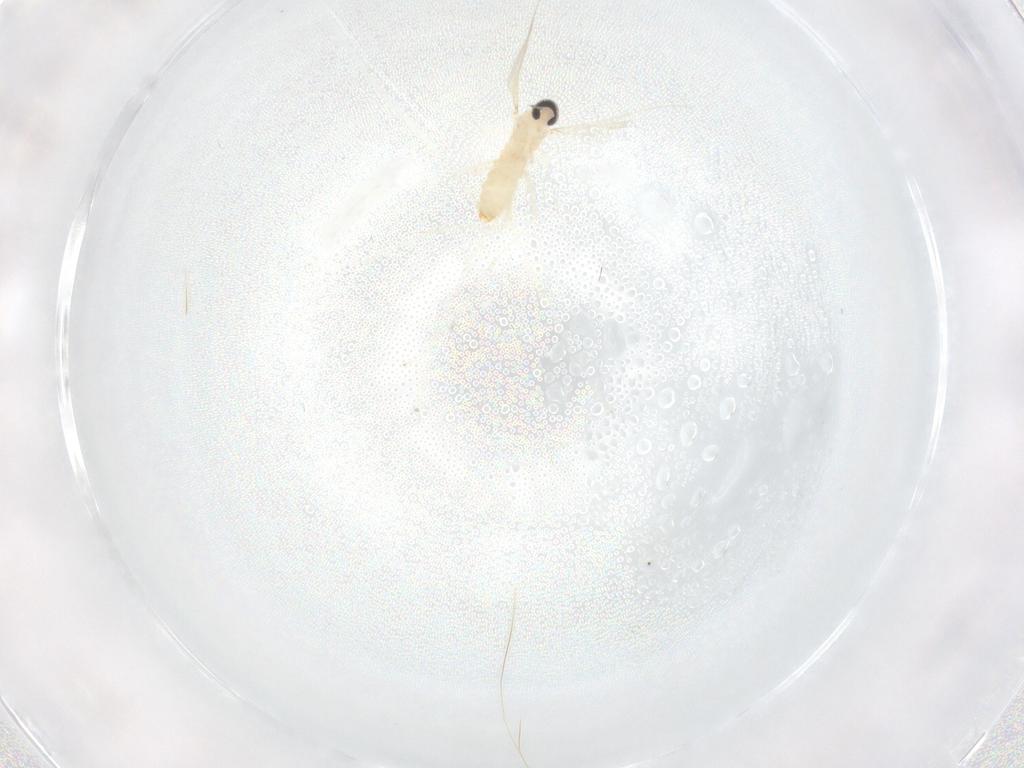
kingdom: Animalia
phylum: Arthropoda
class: Insecta
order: Diptera
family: Cecidomyiidae
